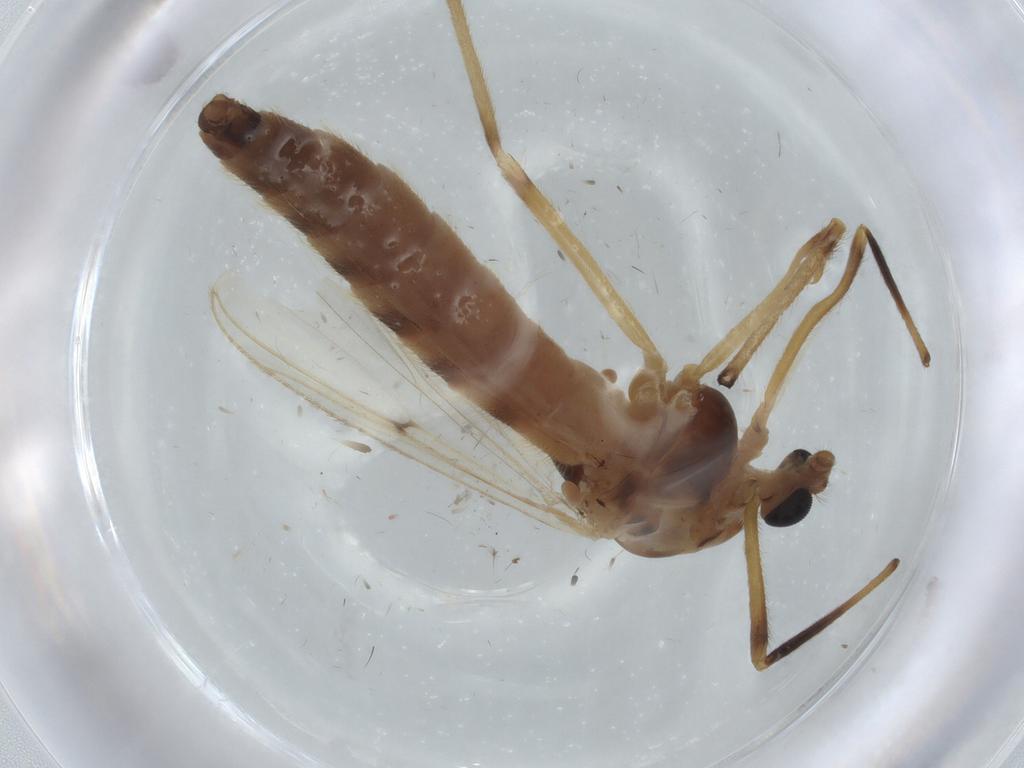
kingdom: Animalia
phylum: Arthropoda
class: Insecta
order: Diptera
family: Chironomidae
